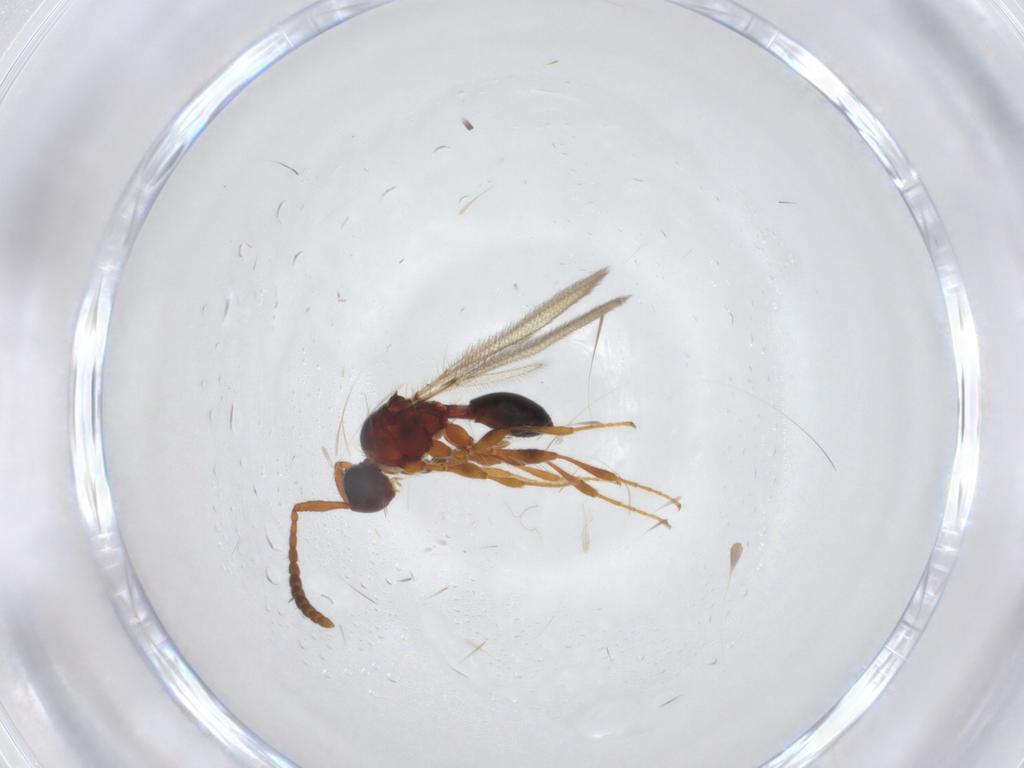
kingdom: Animalia
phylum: Arthropoda
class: Insecta
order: Hymenoptera
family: Diapriidae
